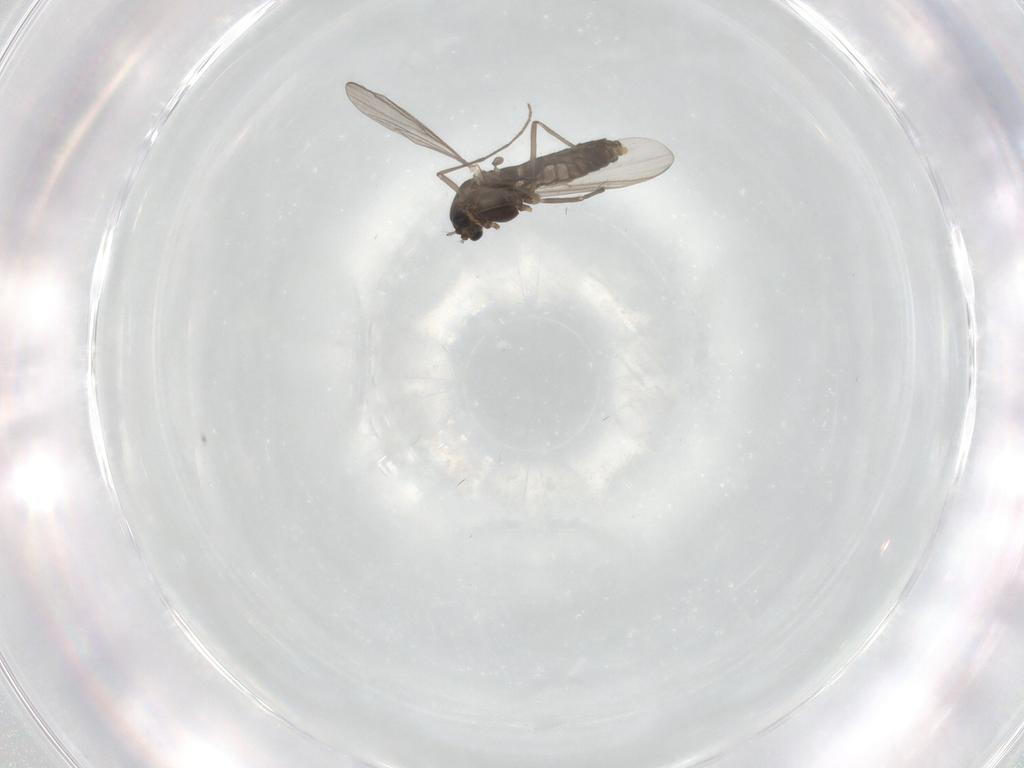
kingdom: Animalia
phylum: Arthropoda
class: Insecta
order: Diptera
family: Chironomidae
